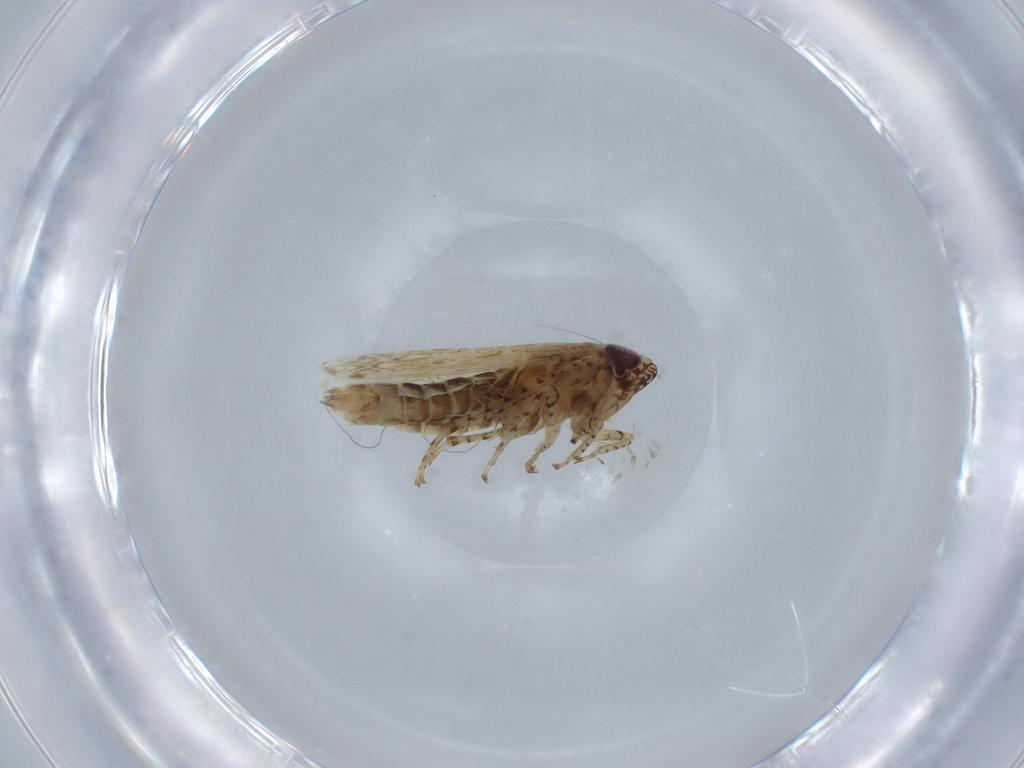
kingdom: Animalia
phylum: Arthropoda
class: Insecta
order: Hemiptera
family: Cicadellidae
